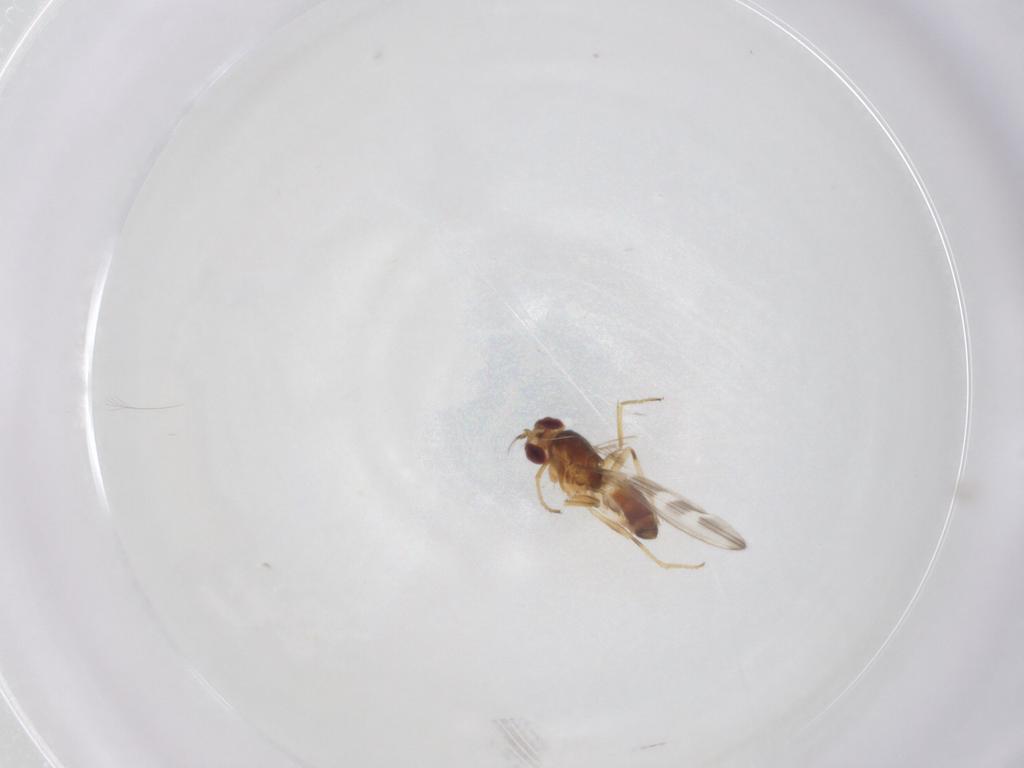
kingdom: Animalia
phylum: Arthropoda
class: Insecta
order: Diptera
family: Periscelididae
